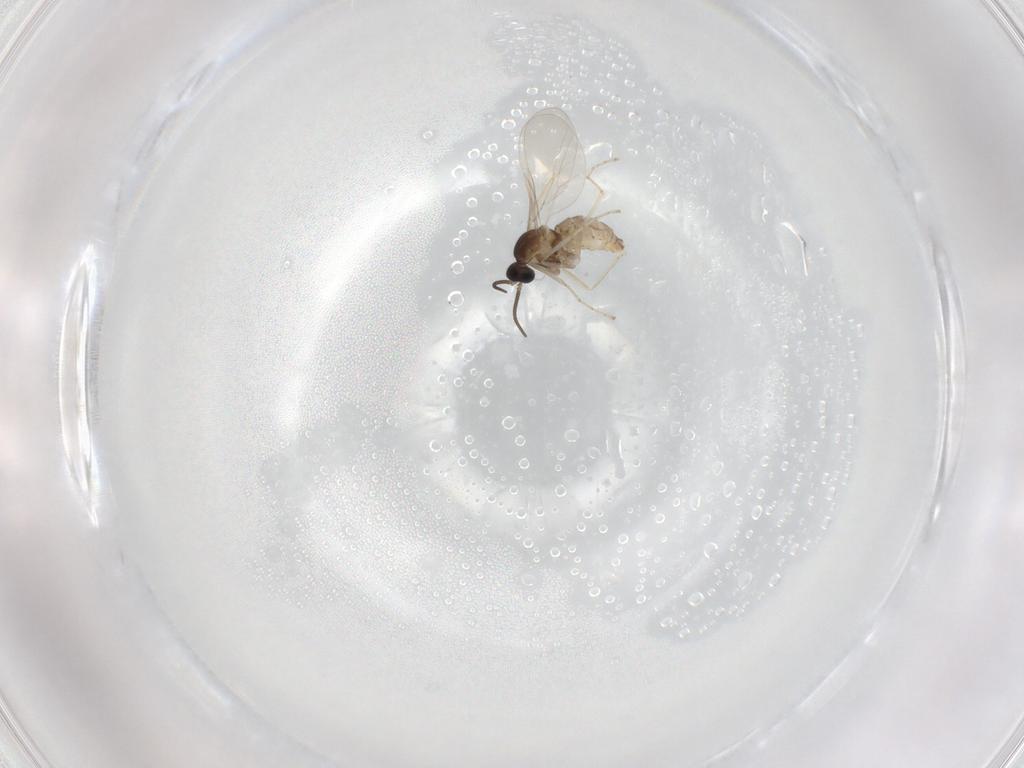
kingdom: Animalia
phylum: Arthropoda
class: Insecta
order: Diptera
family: Cecidomyiidae
